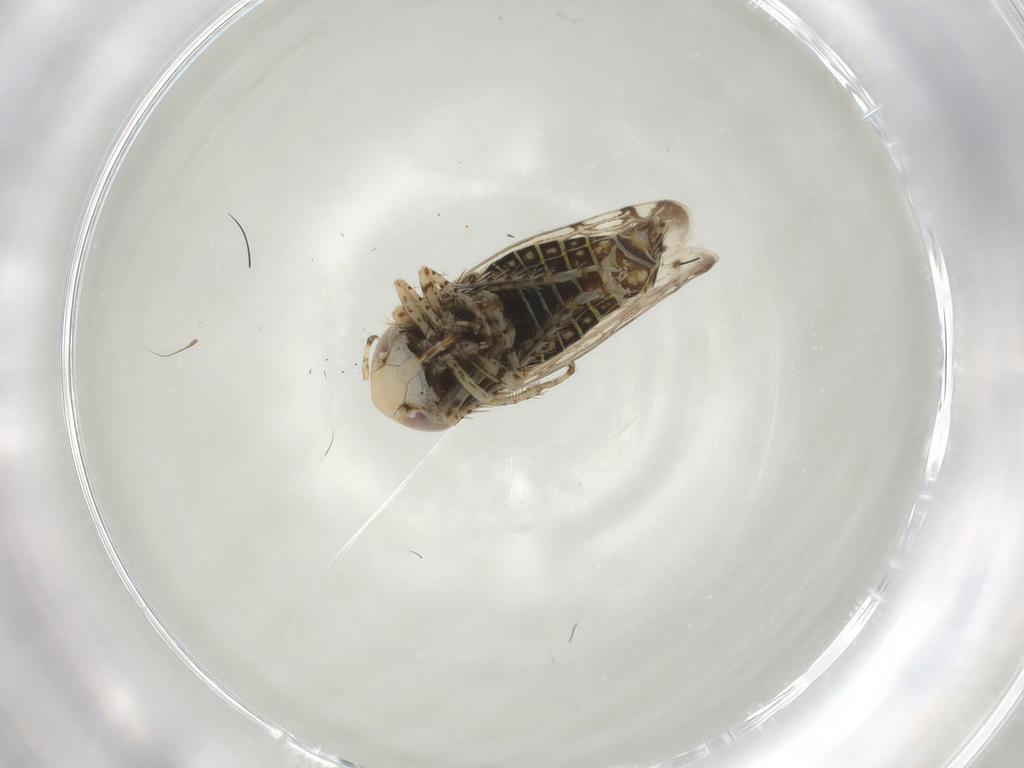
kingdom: Animalia
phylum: Arthropoda
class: Insecta
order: Hemiptera
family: Cicadellidae
